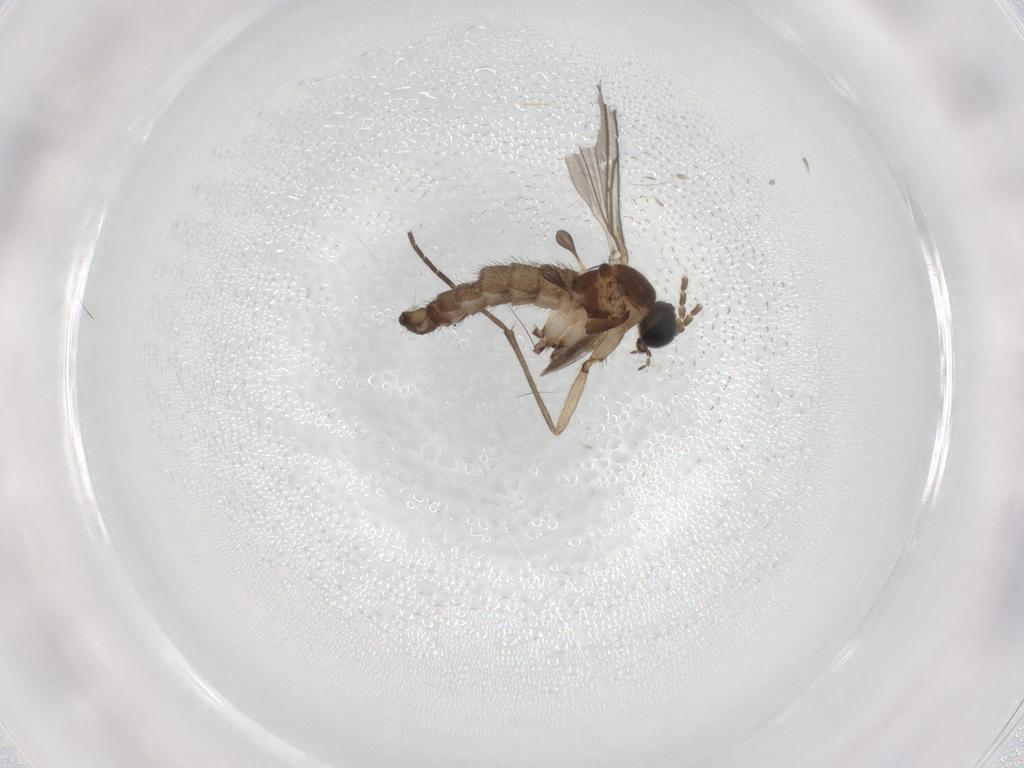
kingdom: Animalia
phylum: Arthropoda
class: Insecta
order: Diptera
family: Sciaridae
